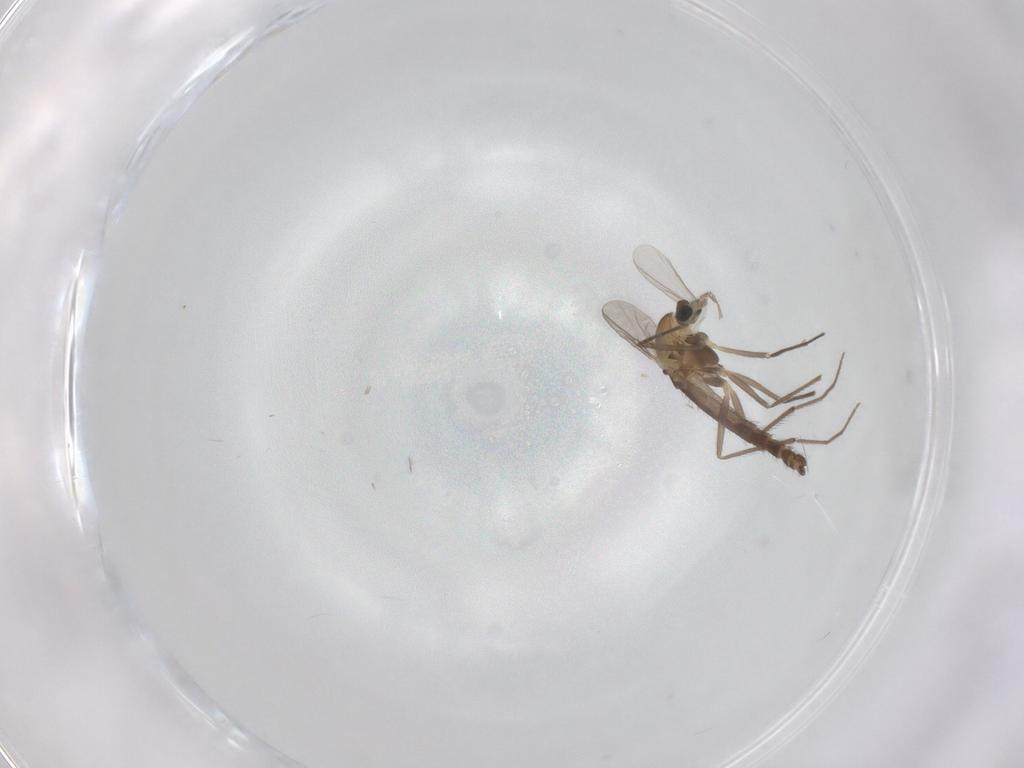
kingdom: Animalia
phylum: Arthropoda
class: Insecta
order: Diptera
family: Chironomidae
